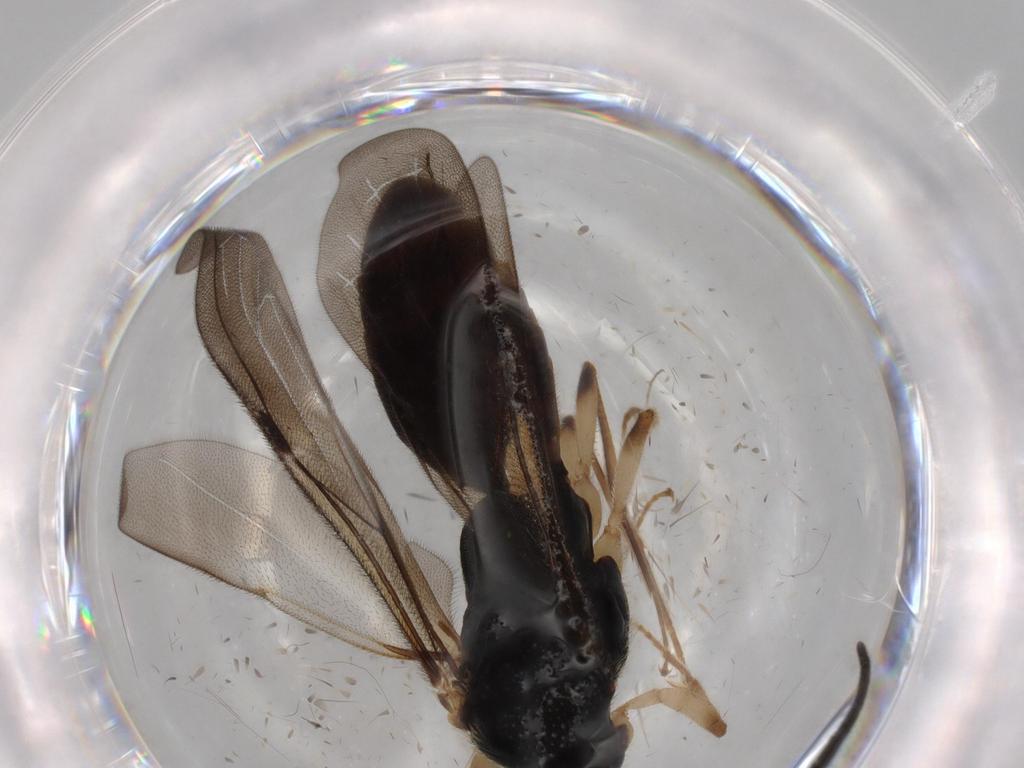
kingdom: Animalia
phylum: Arthropoda
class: Insecta
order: Hymenoptera
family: Bethylidae
